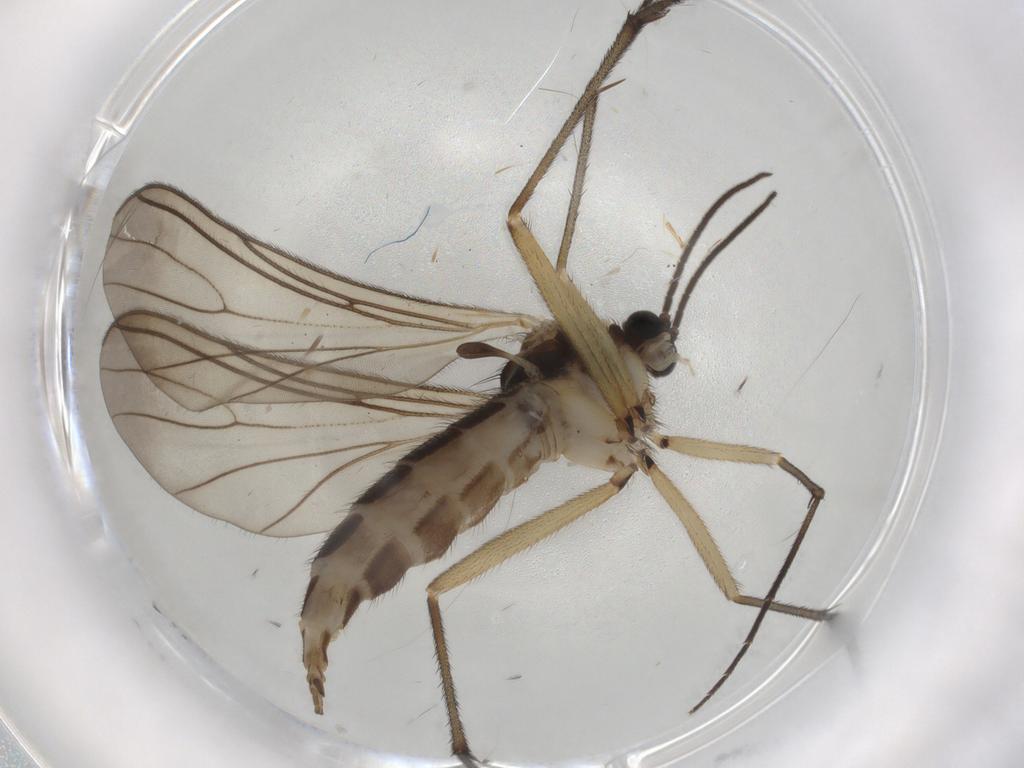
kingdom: Animalia
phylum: Arthropoda
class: Insecta
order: Diptera
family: Sciaridae
